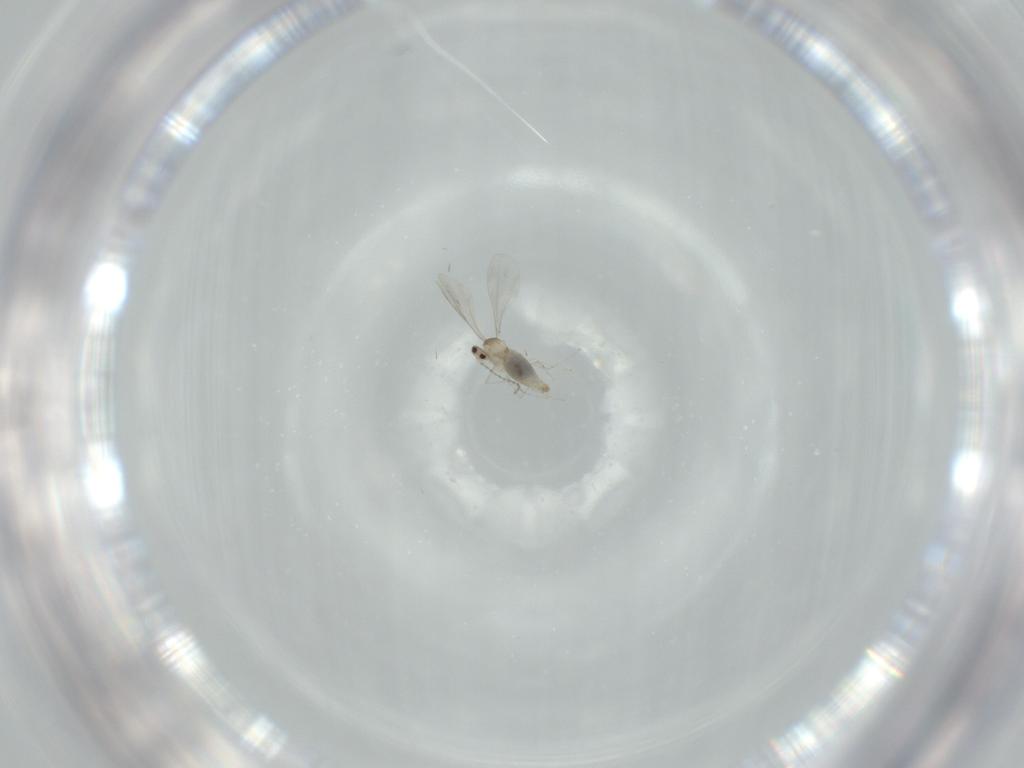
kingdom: Animalia
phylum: Arthropoda
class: Insecta
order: Diptera
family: Cecidomyiidae
